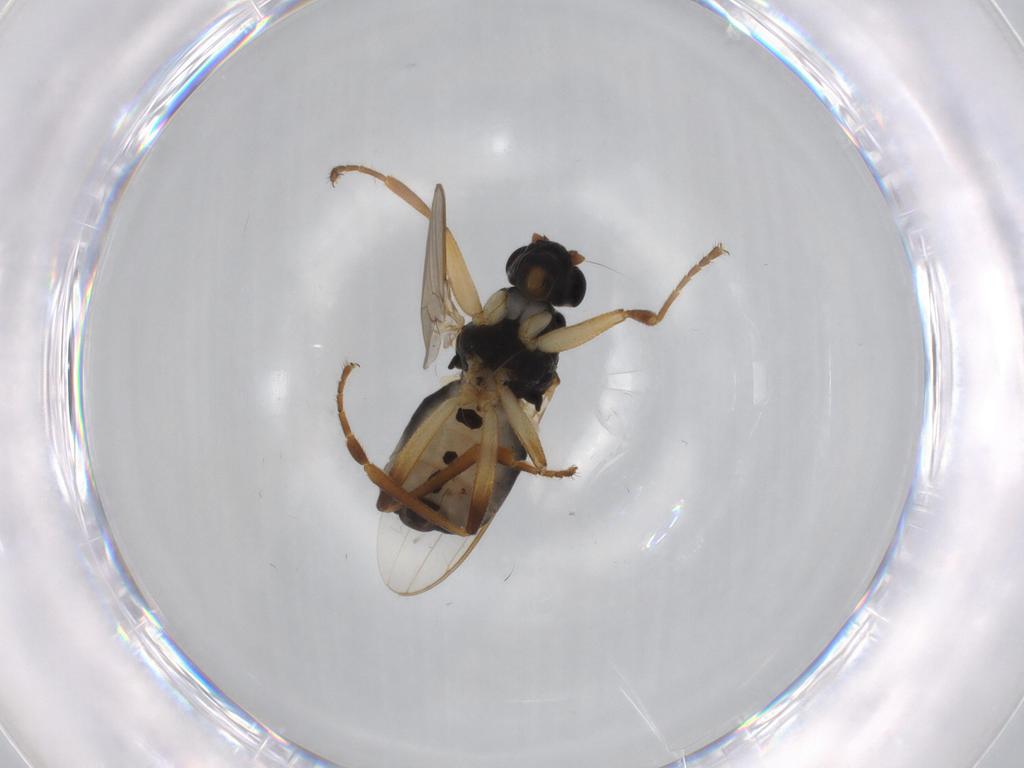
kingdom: Animalia
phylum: Arthropoda
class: Insecta
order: Diptera
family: Sphaeroceridae
